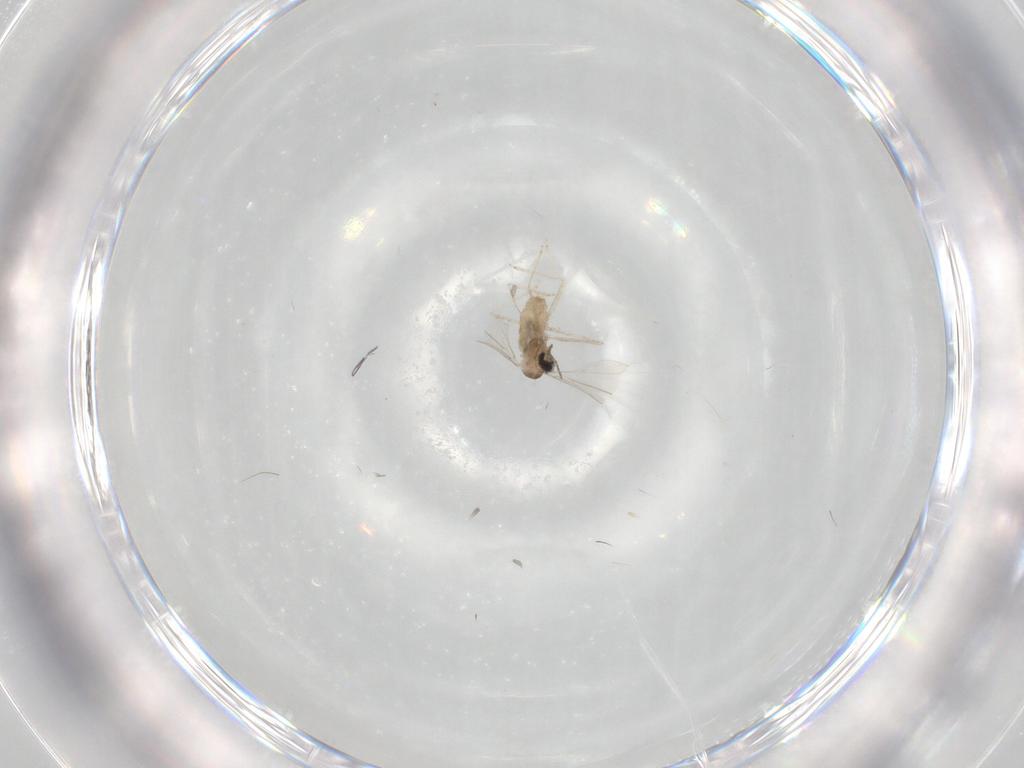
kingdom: Animalia
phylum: Arthropoda
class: Insecta
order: Diptera
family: Cecidomyiidae
